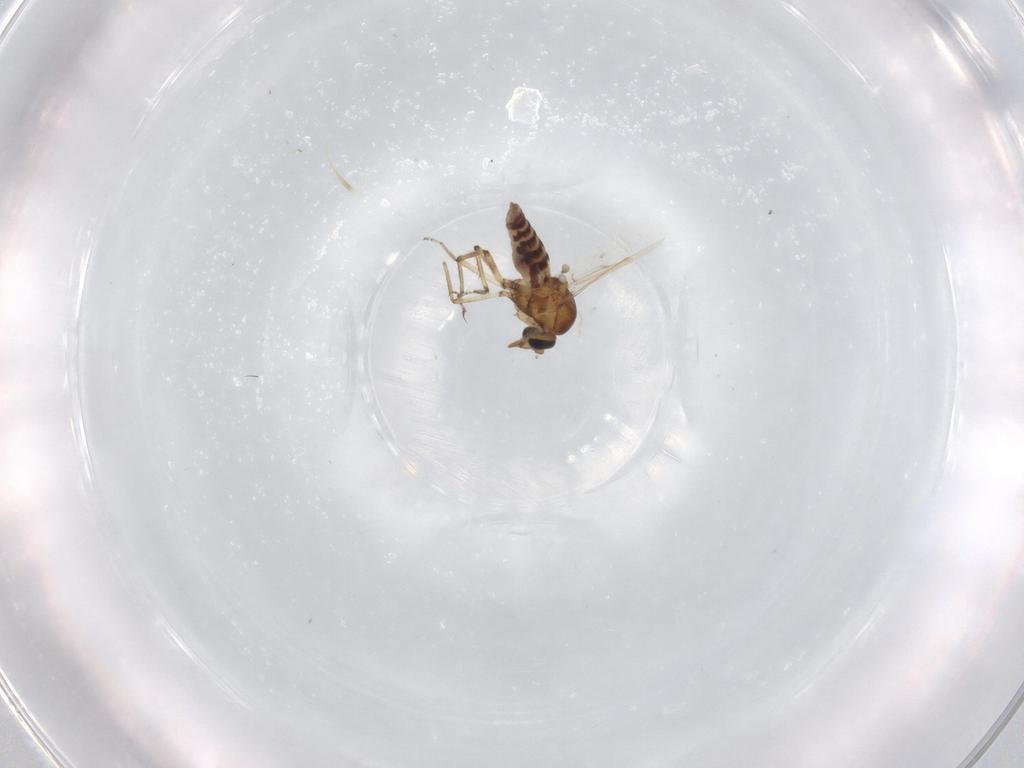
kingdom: Animalia
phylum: Arthropoda
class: Insecta
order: Diptera
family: Ceratopogonidae
